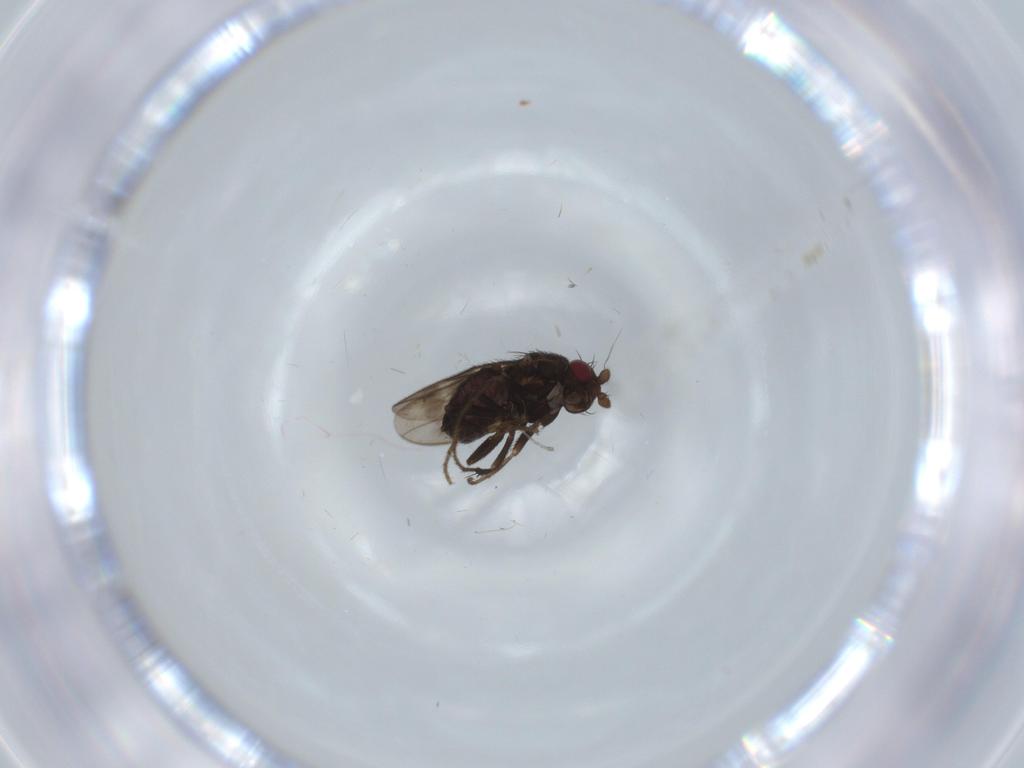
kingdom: Animalia
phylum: Arthropoda
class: Insecta
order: Diptera
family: Sphaeroceridae
